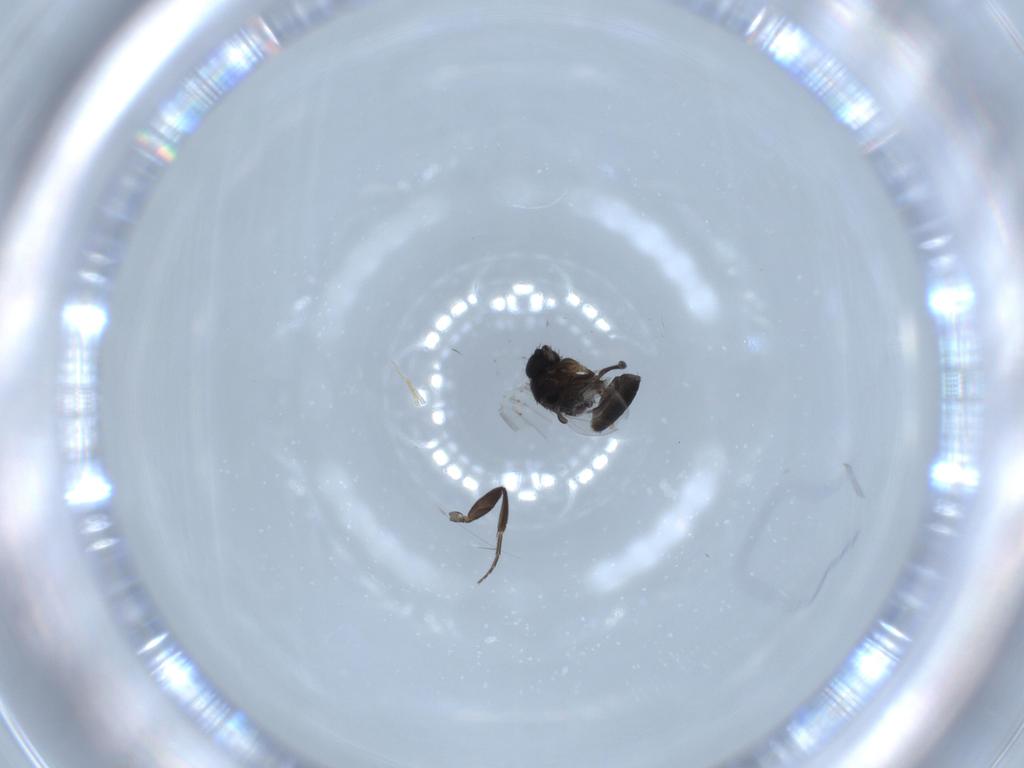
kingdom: Animalia
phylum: Arthropoda
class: Insecta
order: Diptera
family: Phoridae
